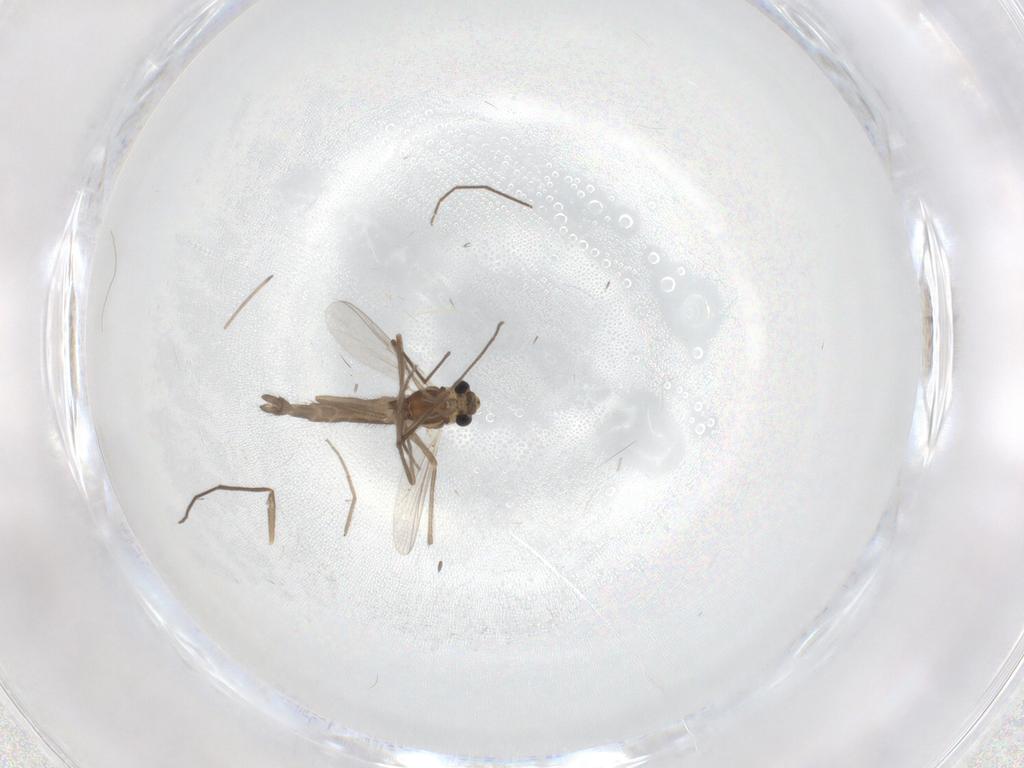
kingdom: Animalia
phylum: Arthropoda
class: Insecta
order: Diptera
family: Chironomidae
